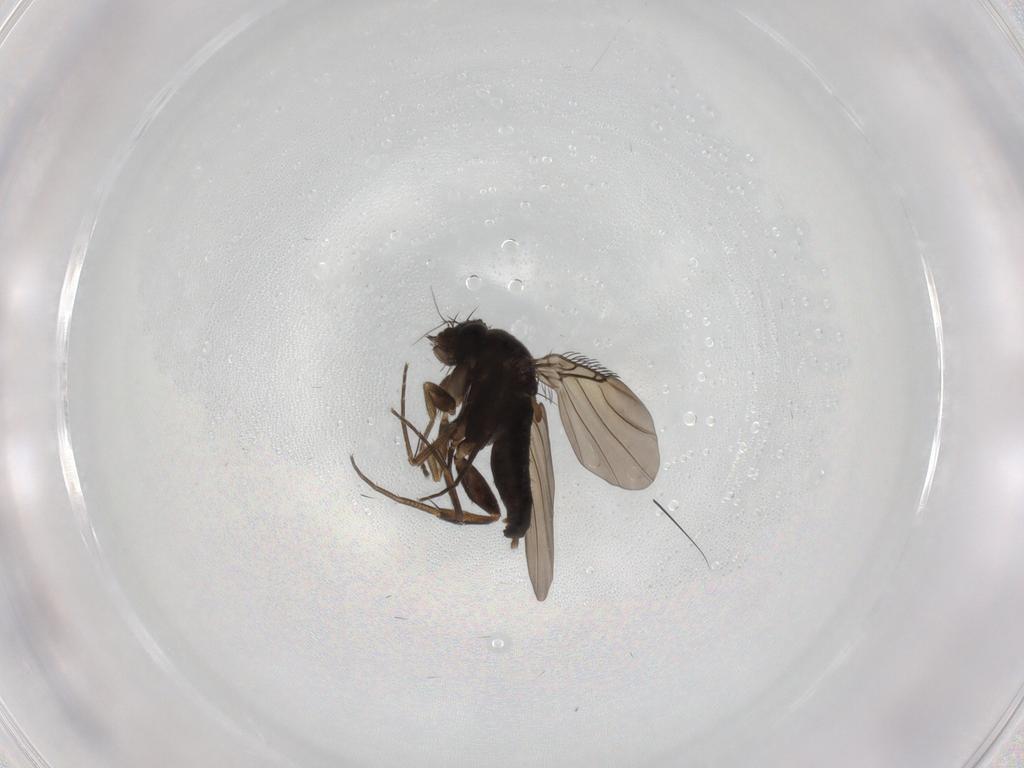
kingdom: Animalia
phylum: Arthropoda
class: Insecta
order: Diptera
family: Phoridae
